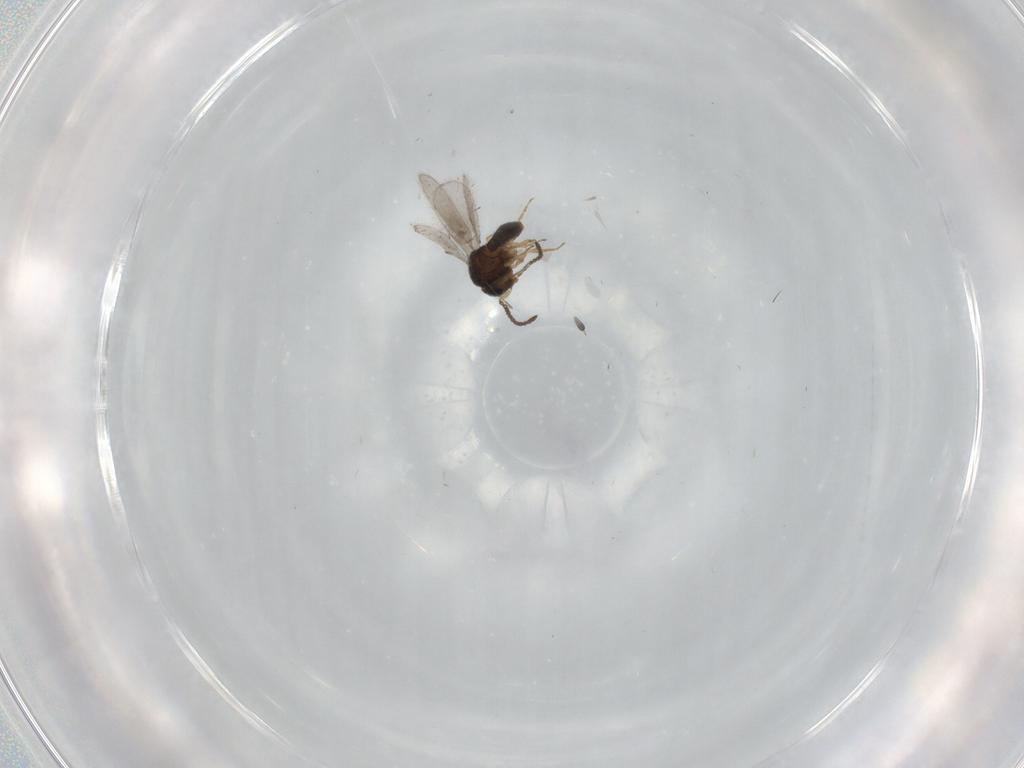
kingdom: Animalia
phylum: Arthropoda
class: Insecta
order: Hymenoptera
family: Scelionidae
